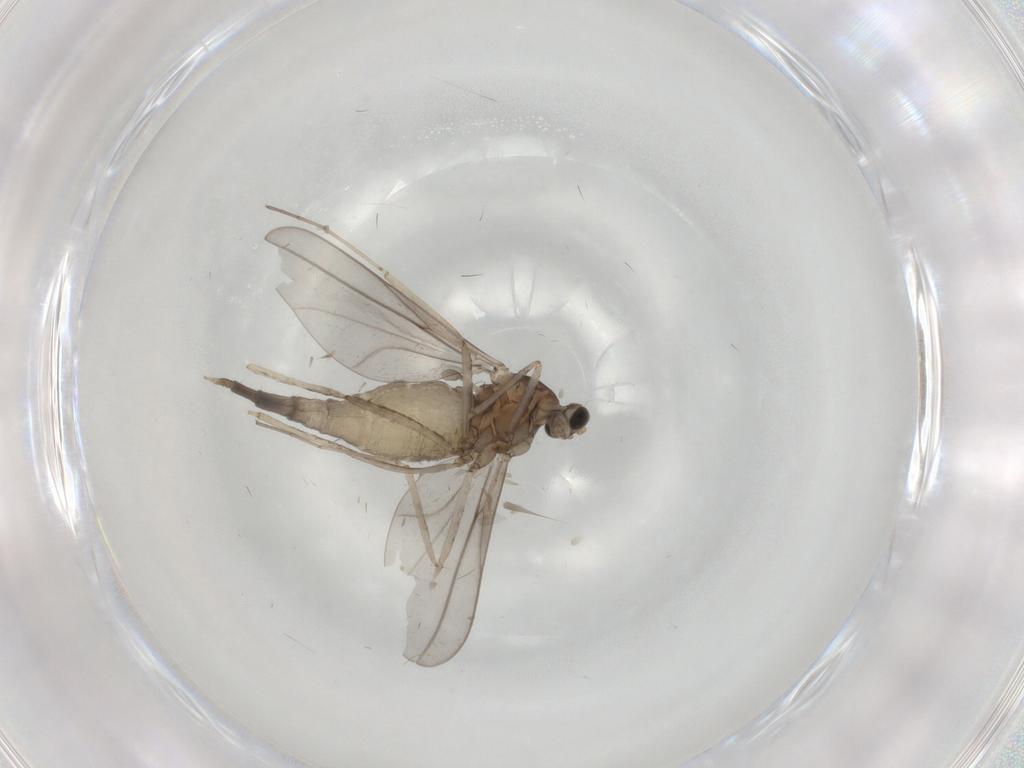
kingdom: Animalia
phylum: Arthropoda
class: Insecta
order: Diptera
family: Cecidomyiidae
